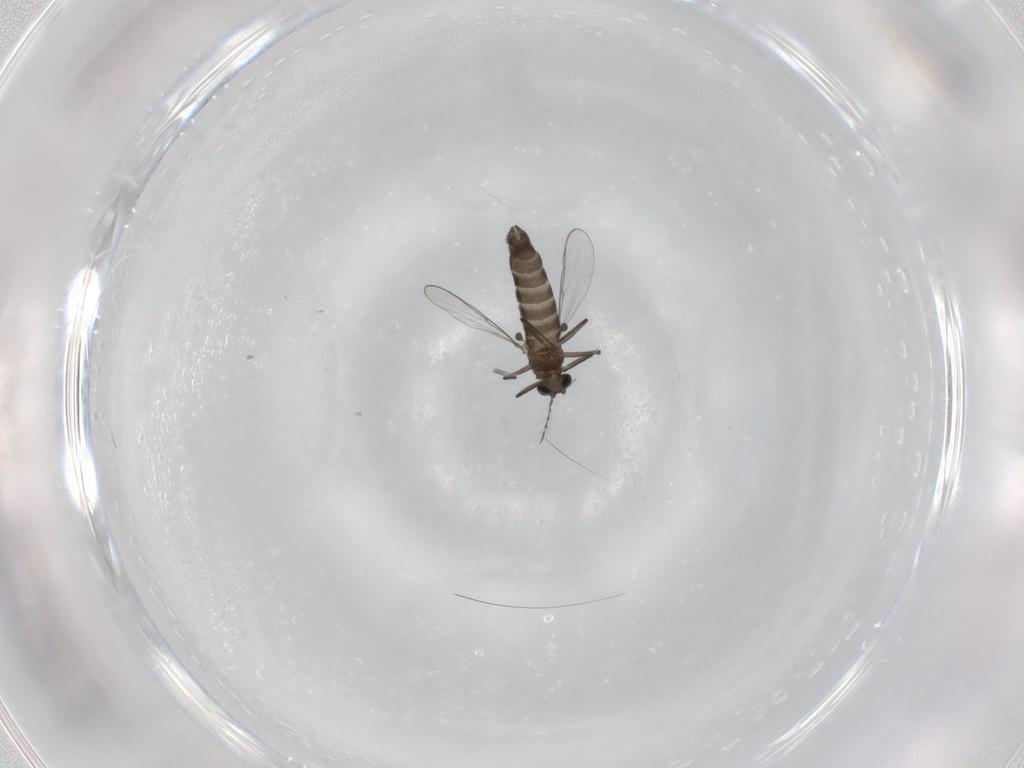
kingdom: Animalia
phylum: Arthropoda
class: Insecta
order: Diptera
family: Chironomidae
